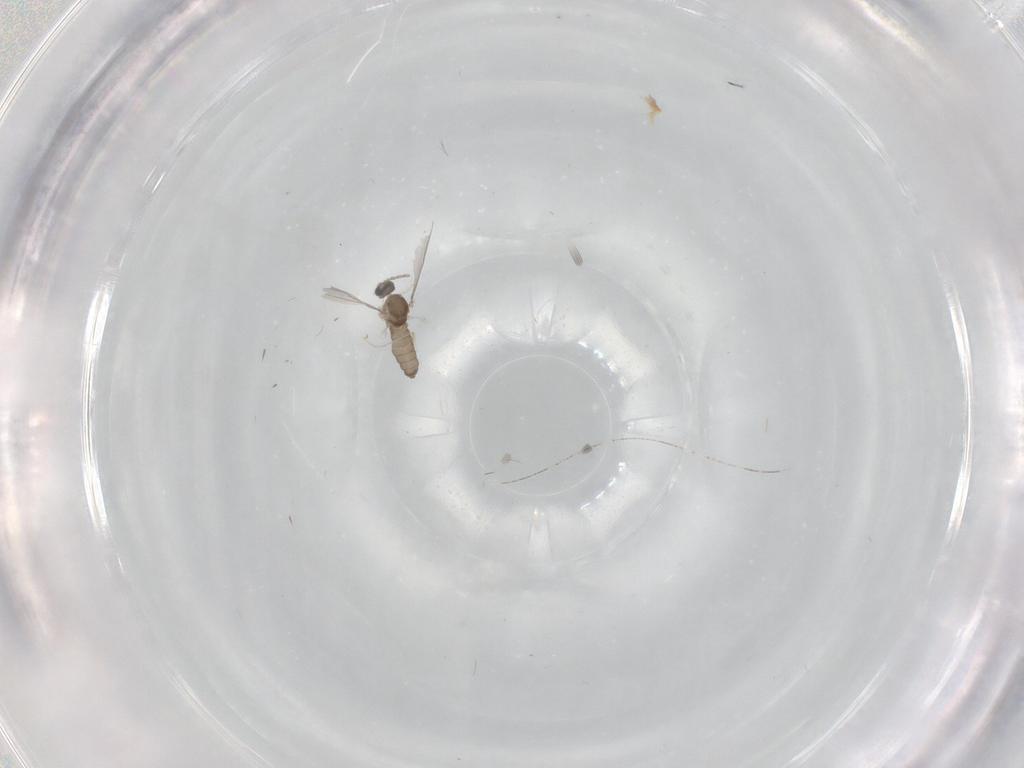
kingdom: Animalia
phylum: Arthropoda
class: Insecta
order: Diptera
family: Cecidomyiidae
